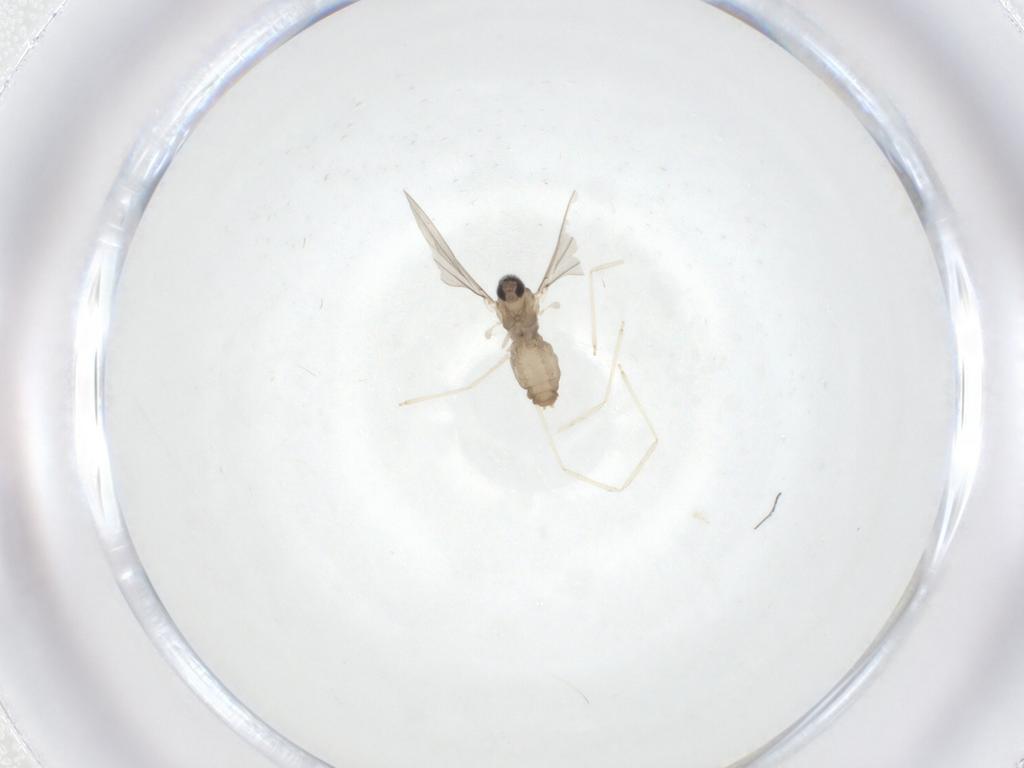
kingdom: Animalia
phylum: Arthropoda
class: Insecta
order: Diptera
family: Limoniidae
